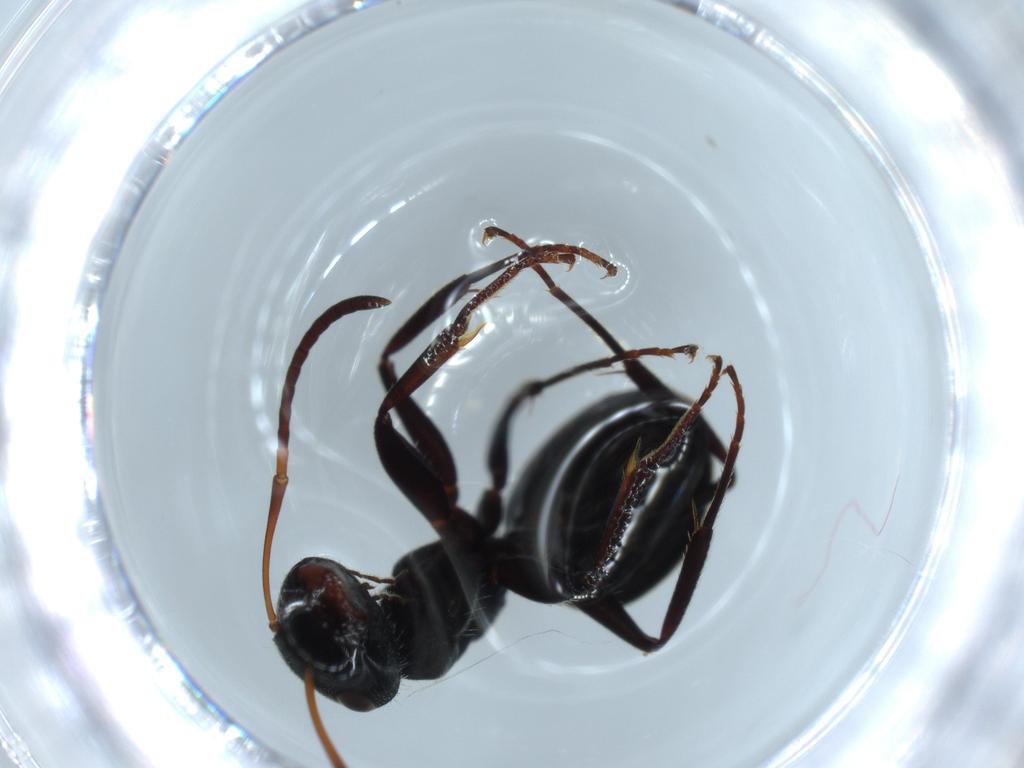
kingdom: Animalia
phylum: Arthropoda
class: Insecta
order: Hymenoptera
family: Formicidae
